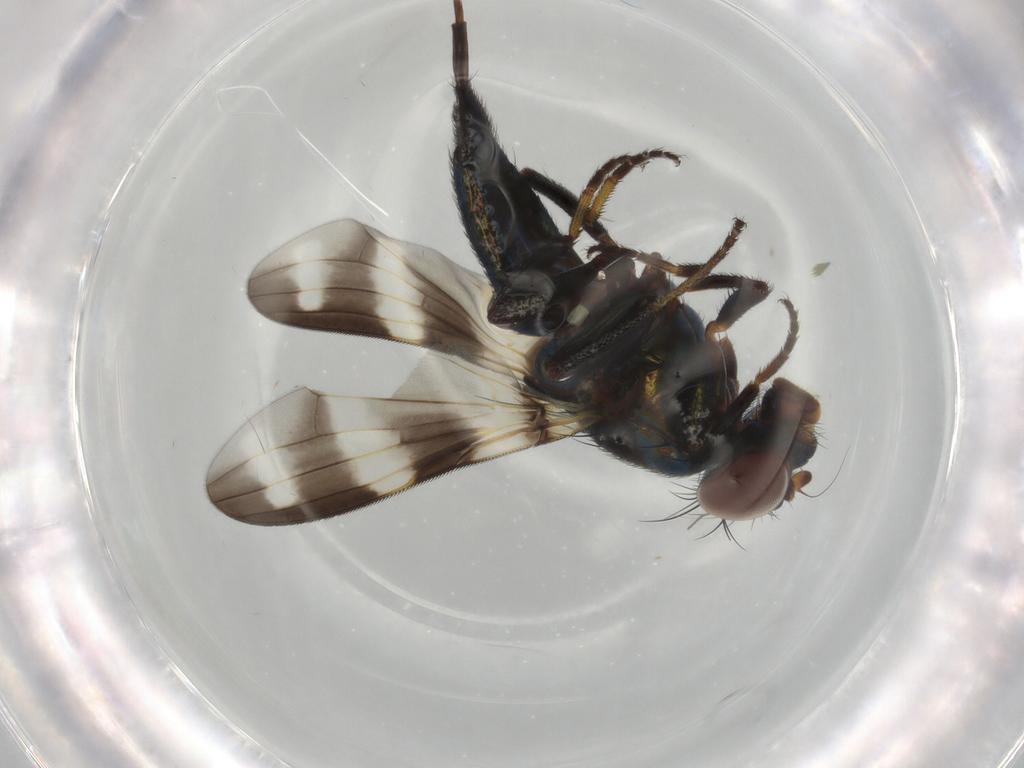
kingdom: Animalia
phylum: Arthropoda
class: Insecta
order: Diptera
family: Ulidiidae
